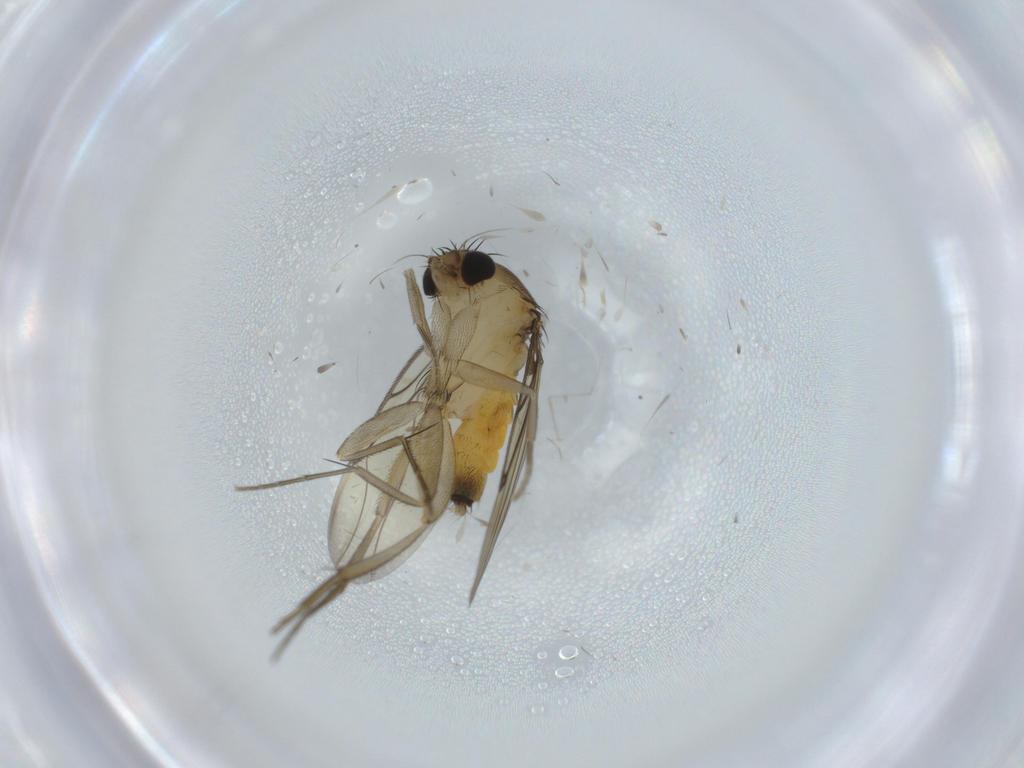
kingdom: Animalia
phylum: Arthropoda
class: Insecta
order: Diptera
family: Phoridae
